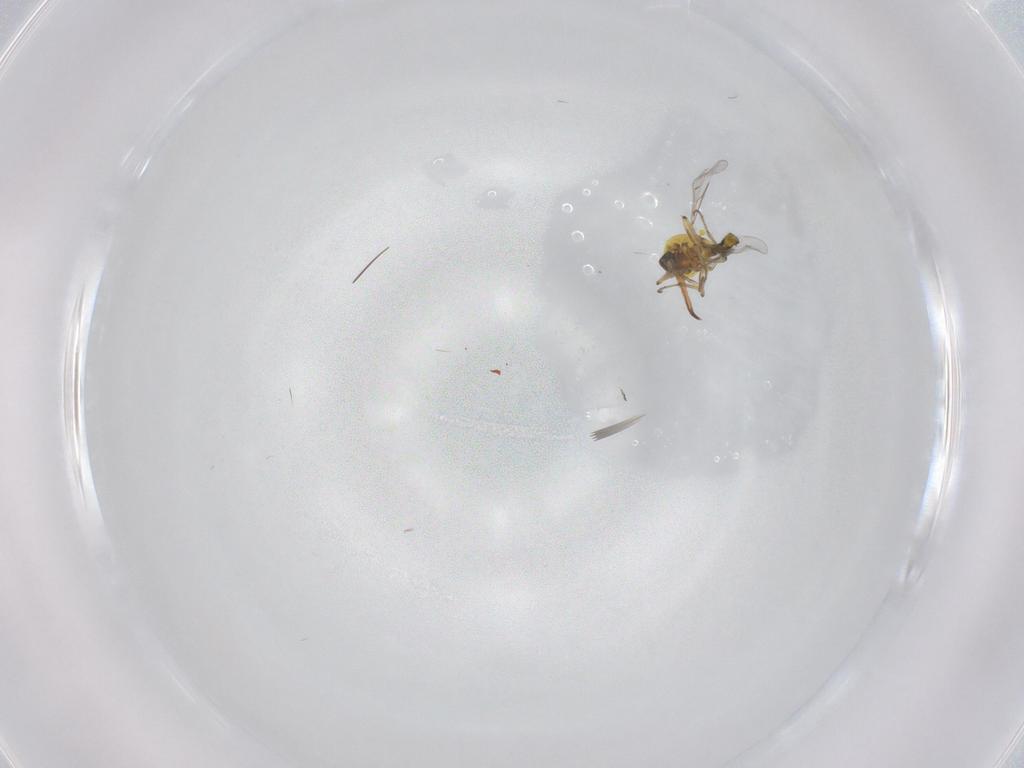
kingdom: Animalia
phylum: Arthropoda
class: Insecta
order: Diptera
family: Ceratopogonidae
